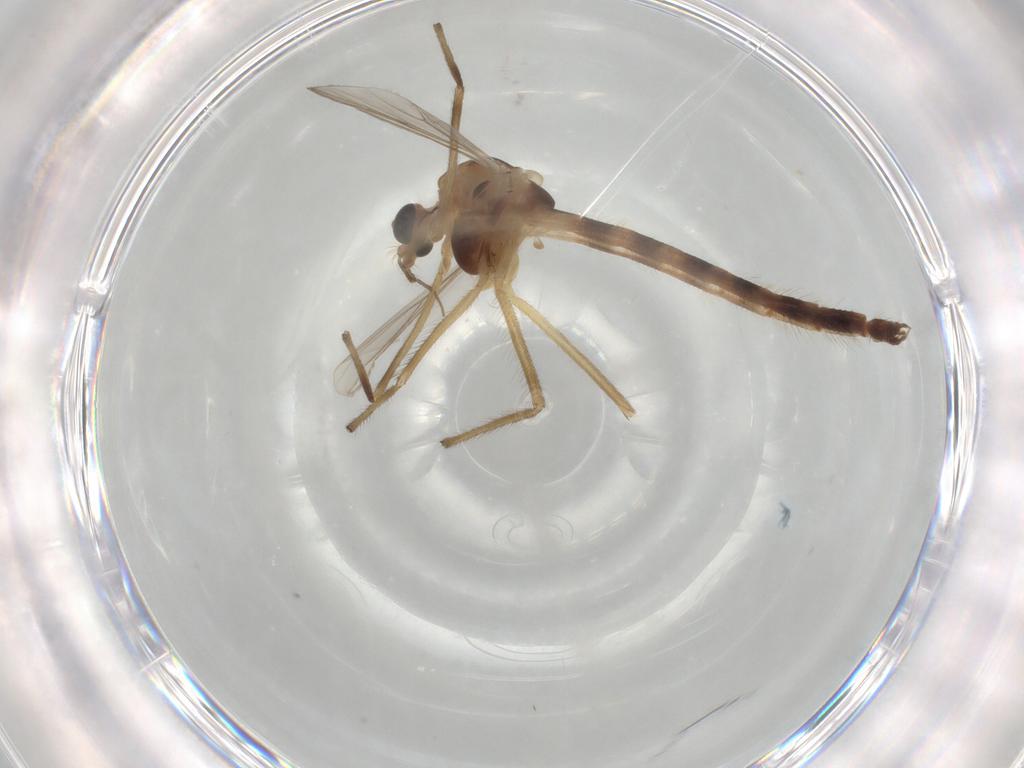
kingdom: Animalia
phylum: Arthropoda
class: Insecta
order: Diptera
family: Chironomidae
